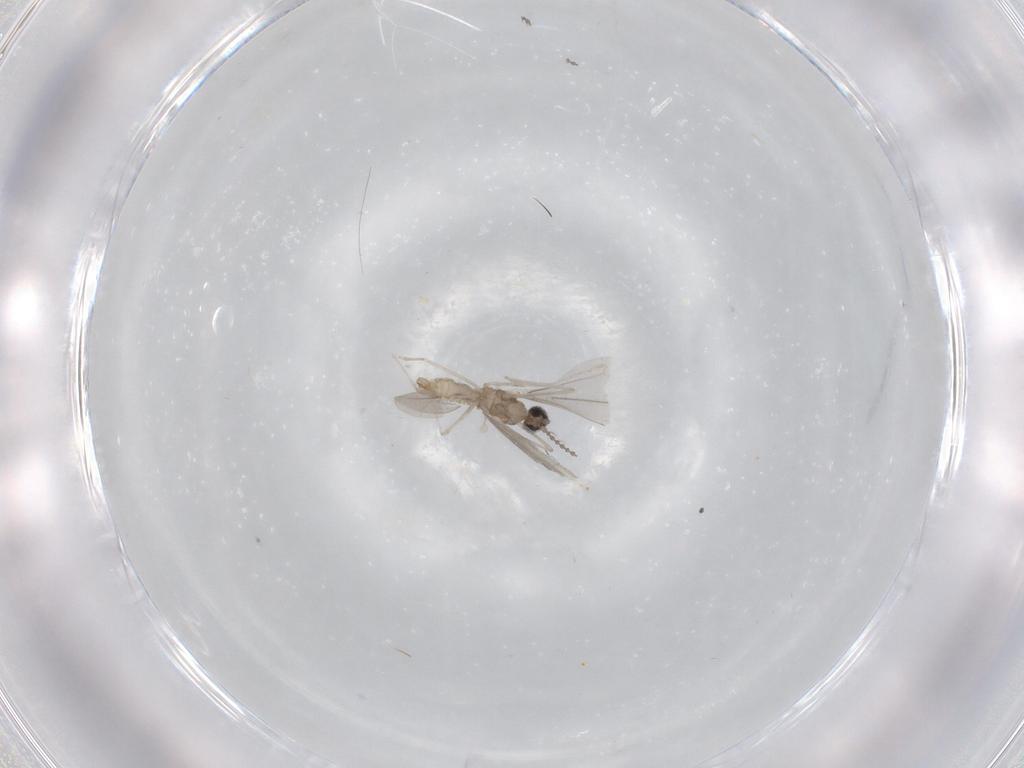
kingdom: Animalia
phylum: Arthropoda
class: Insecta
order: Diptera
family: Cecidomyiidae
